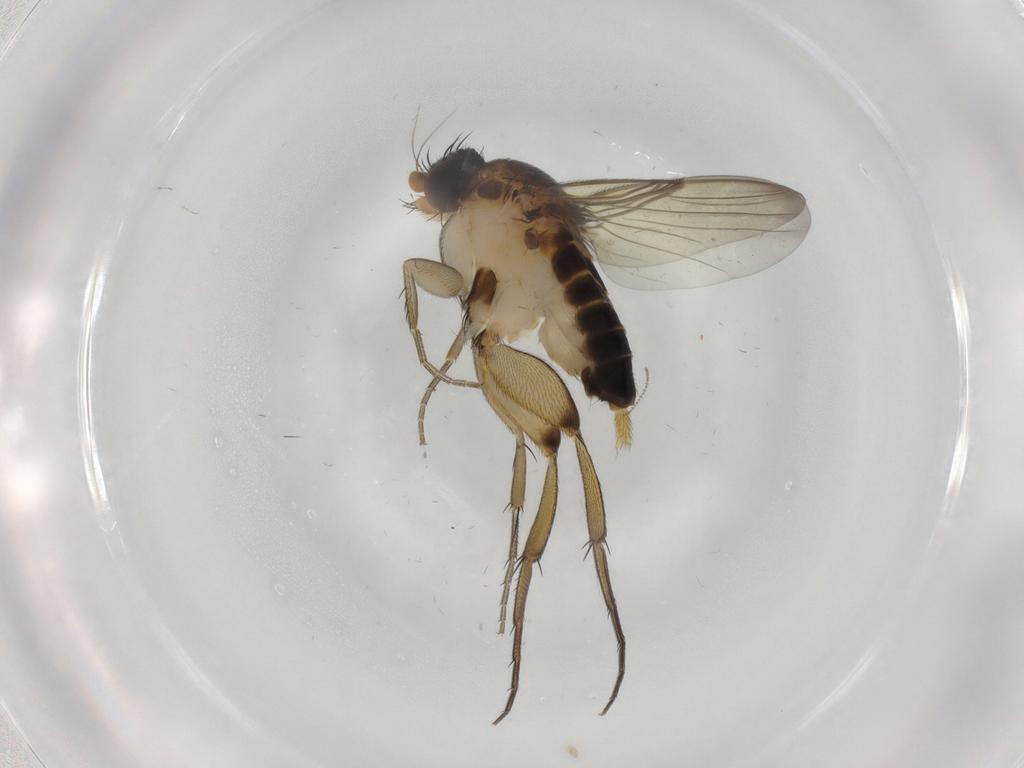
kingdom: Animalia
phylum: Arthropoda
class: Insecta
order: Diptera
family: Phoridae
